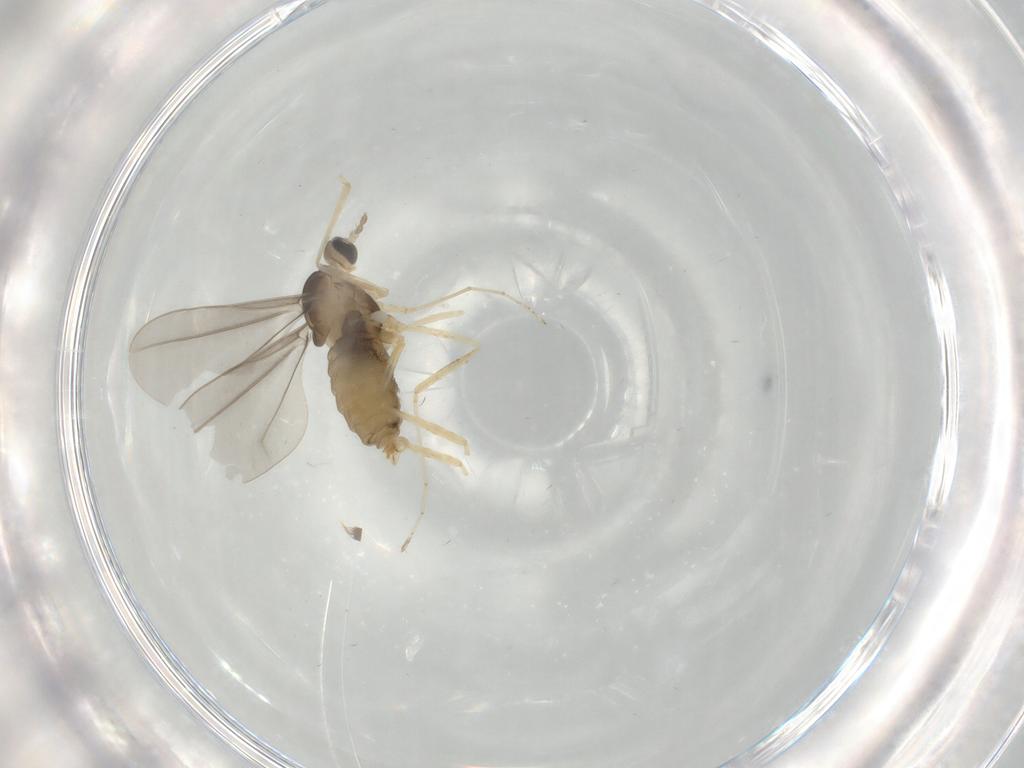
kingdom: Animalia
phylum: Arthropoda
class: Insecta
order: Diptera
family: Cecidomyiidae
